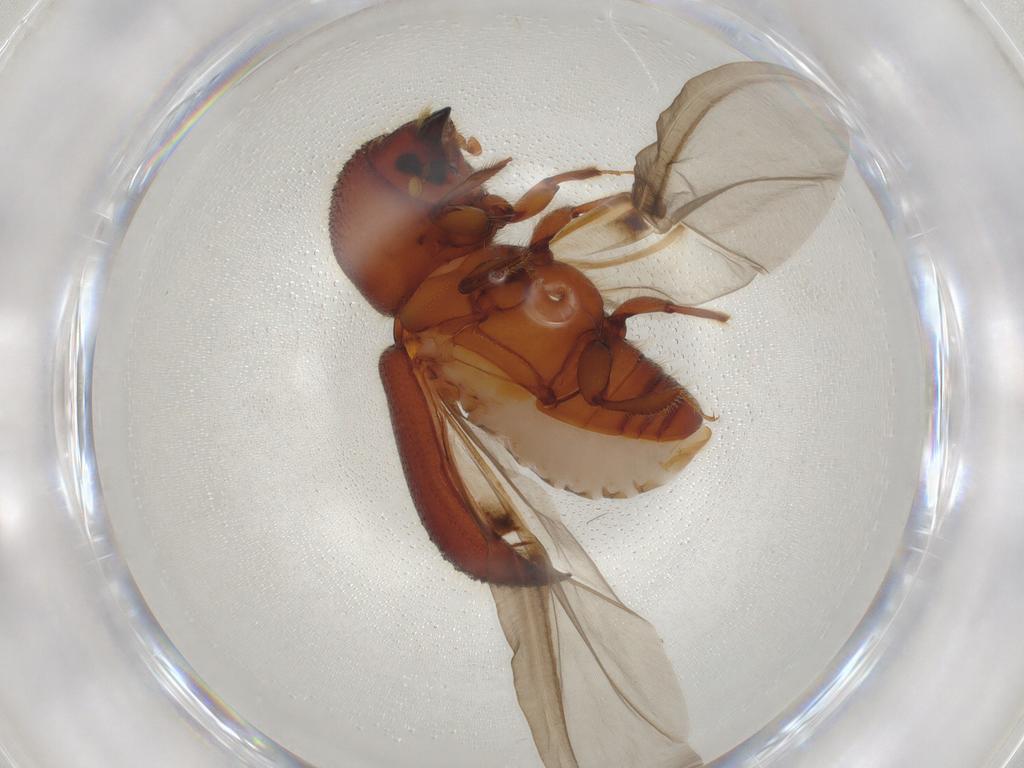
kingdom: Animalia
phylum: Arthropoda
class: Insecta
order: Coleoptera
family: Curculionidae
